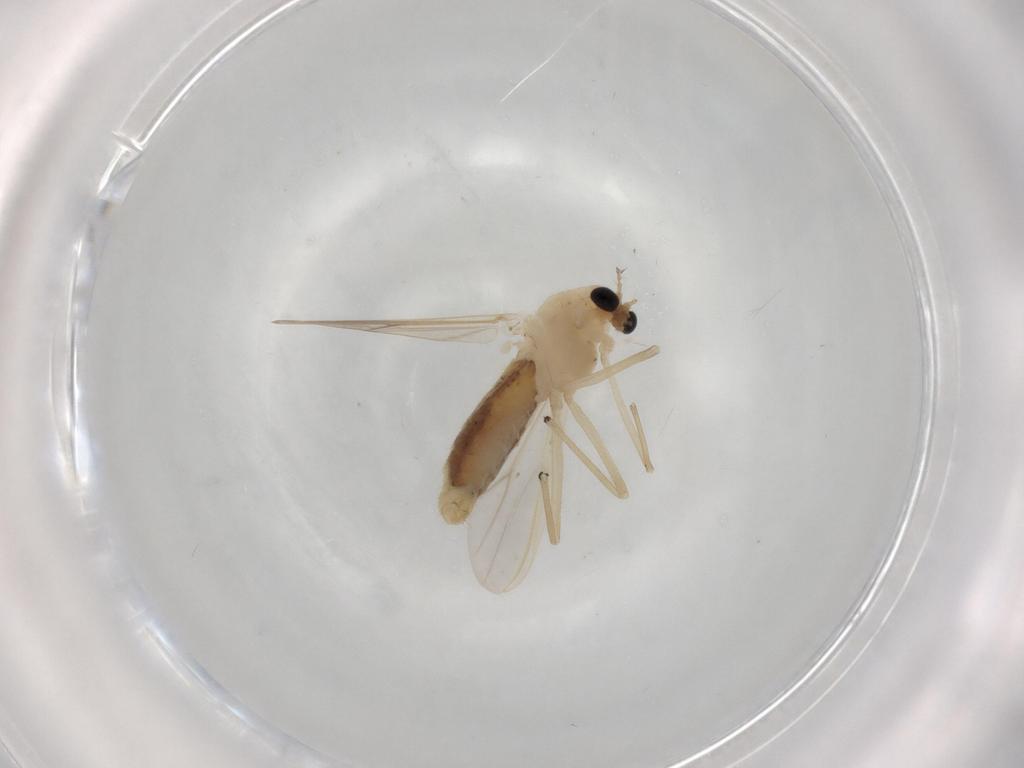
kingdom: Animalia
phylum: Arthropoda
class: Insecta
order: Diptera
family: Chironomidae
